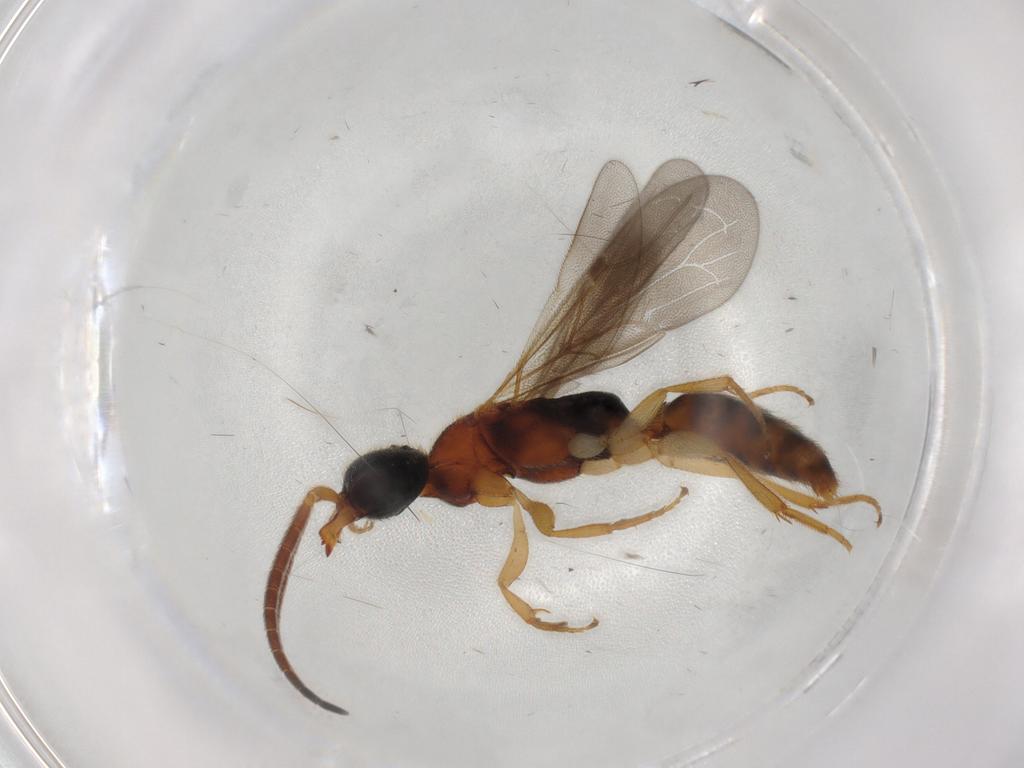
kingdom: Animalia
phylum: Arthropoda
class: Insecta
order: Hymenoptera
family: Bethylidae
